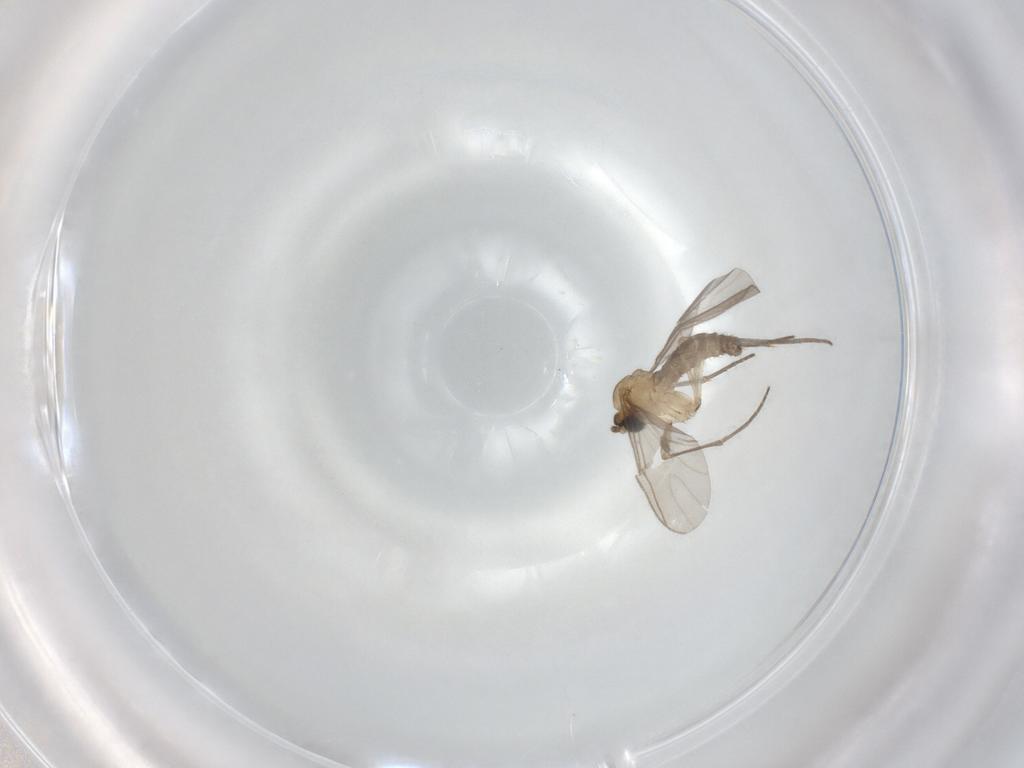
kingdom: Animalia
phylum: Arthropoda
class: Insecta
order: Diptera
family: Sciaridae
